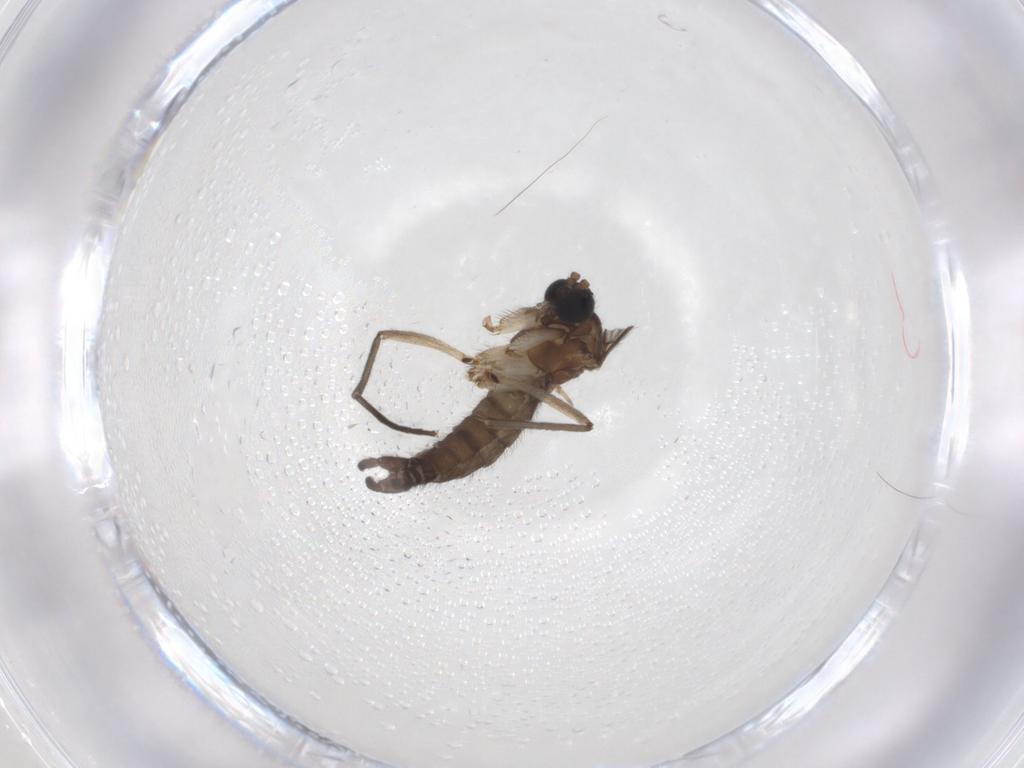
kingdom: Animalia
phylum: Arthropoda
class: Insecta
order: Diptera
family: Sciaridae
